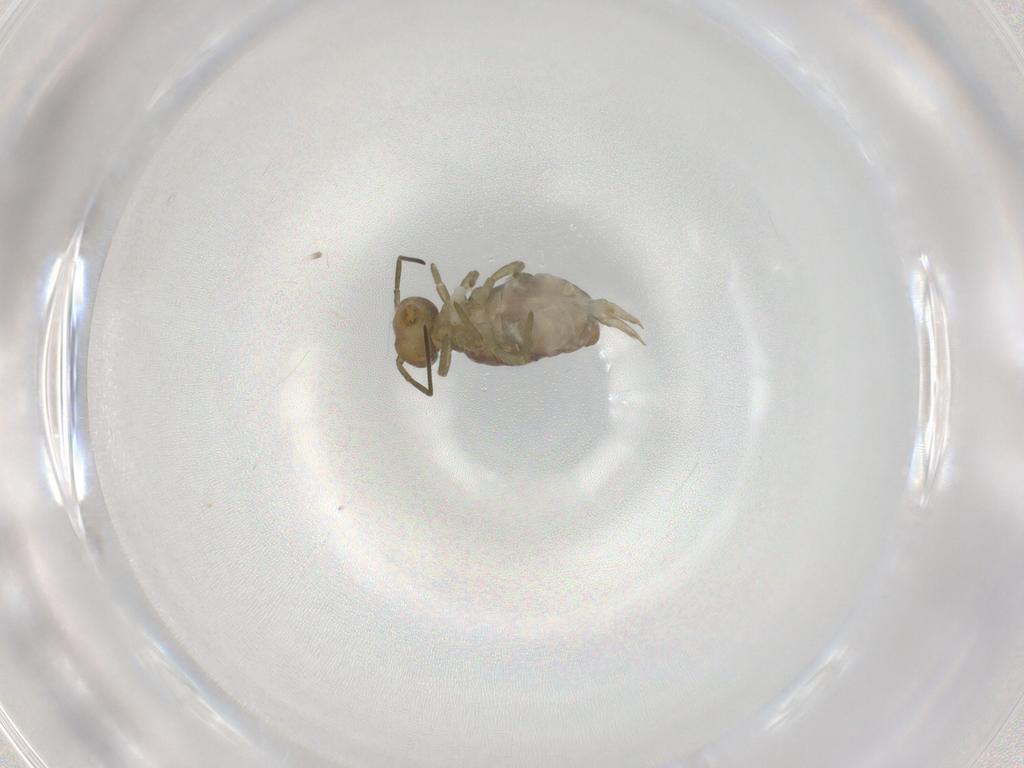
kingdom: Animalia
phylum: Arthropoda
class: Collembola
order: Symphypleona
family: Sminthuridae
